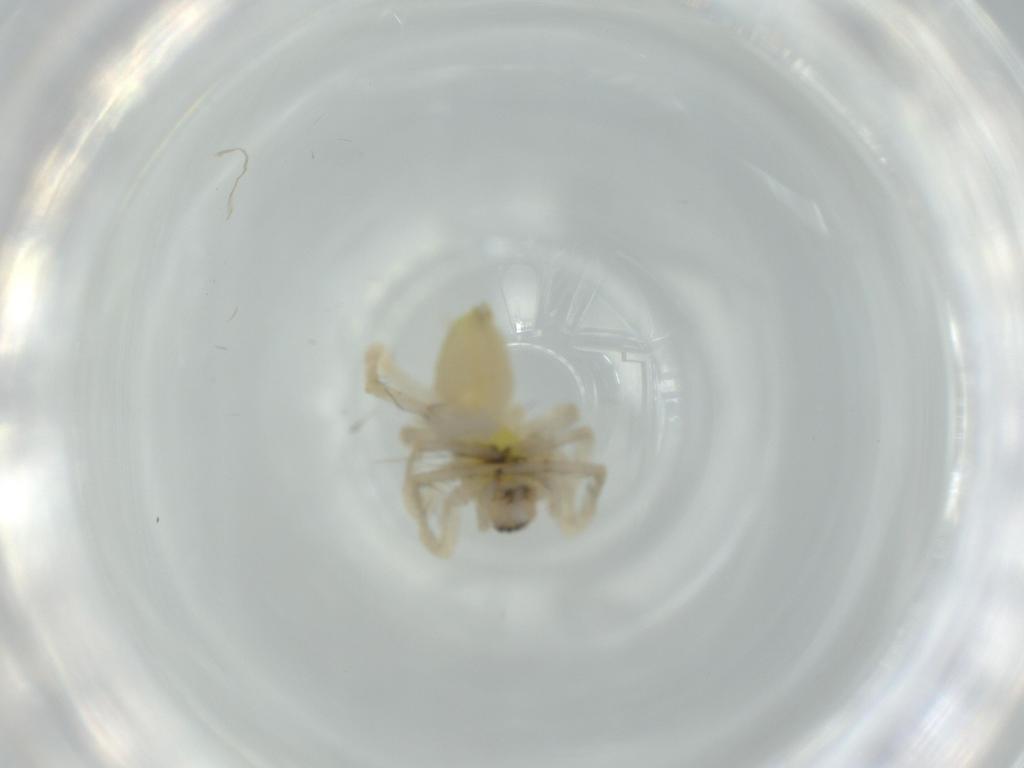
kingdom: Animalia
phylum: Arthropoda
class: Arachnida
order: Araneae
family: Anyphaenidae
